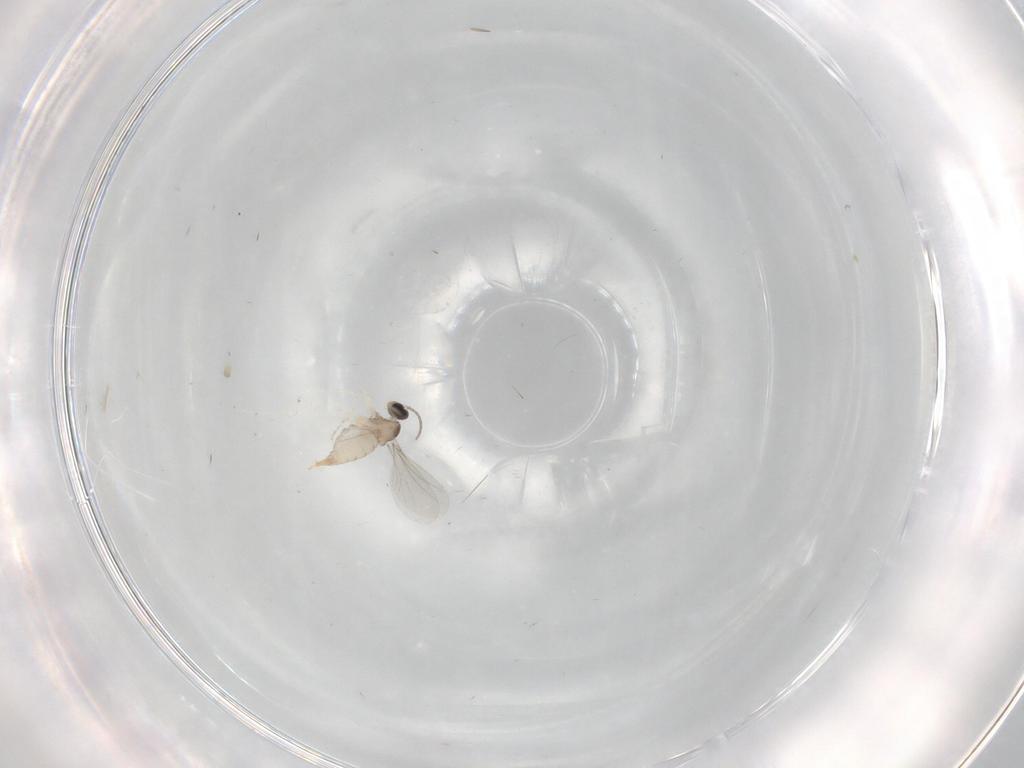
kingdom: Animalia
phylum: Arthropoda
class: Insecta
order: Diptera
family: Cecidomyiidae
